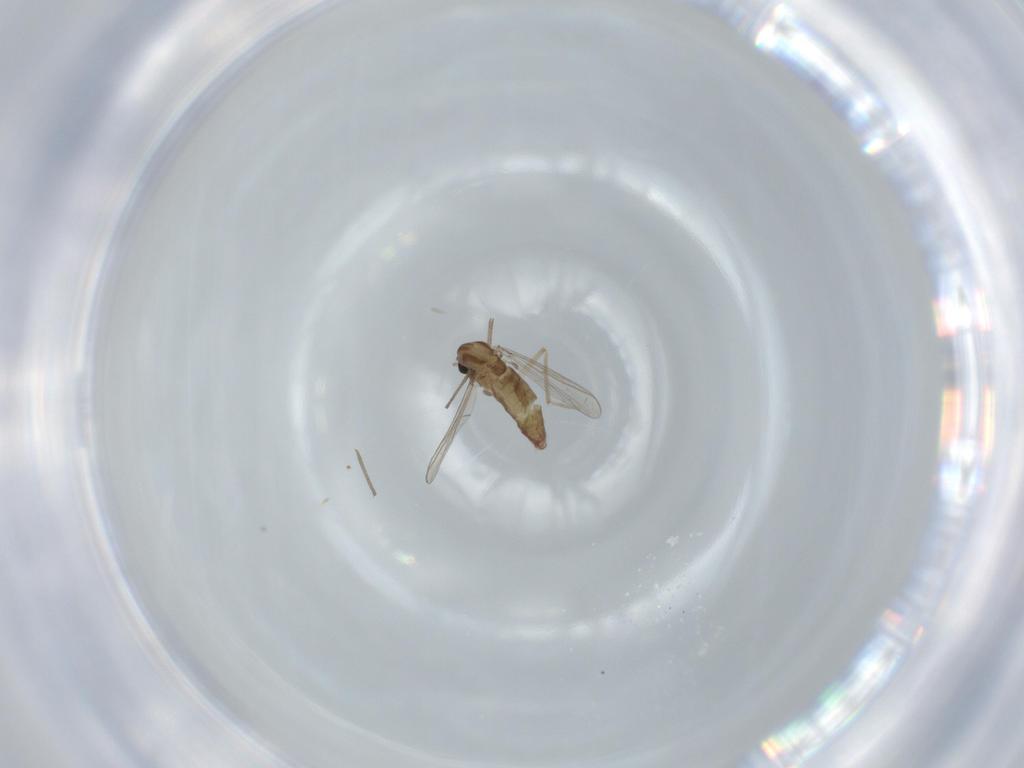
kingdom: Animalia
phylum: Arthropoda
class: Insecta
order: Diptera
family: Chironomidae
